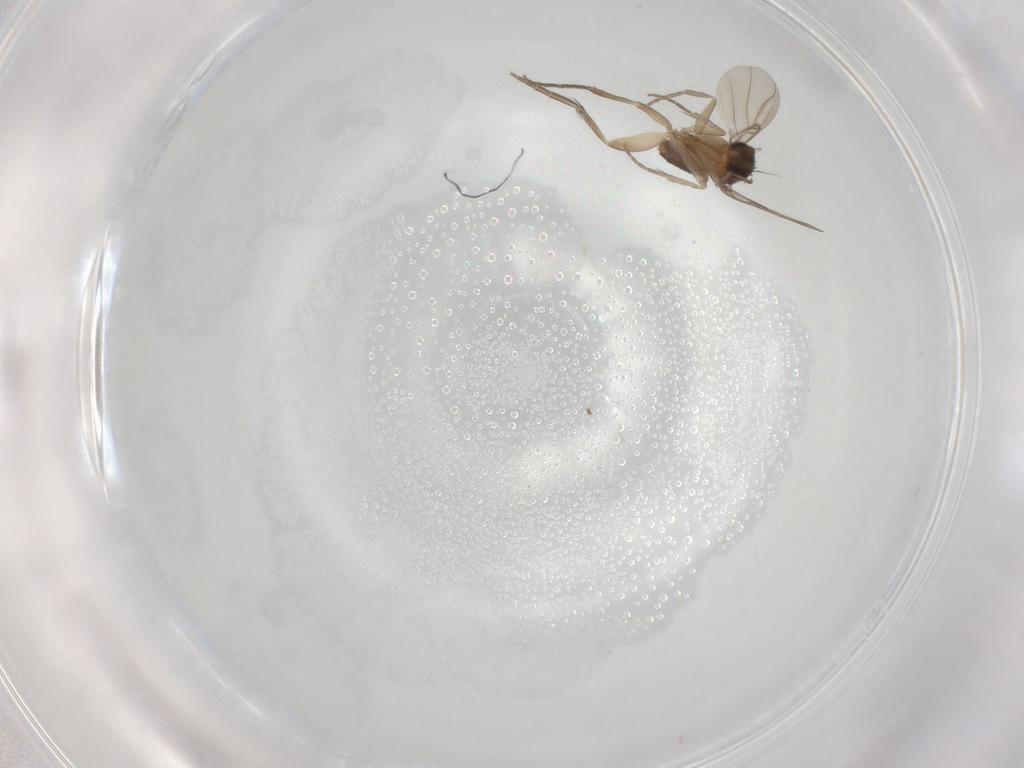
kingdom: Animalia
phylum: Arthropoda
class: Insecta
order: Diptera
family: Phoridae
